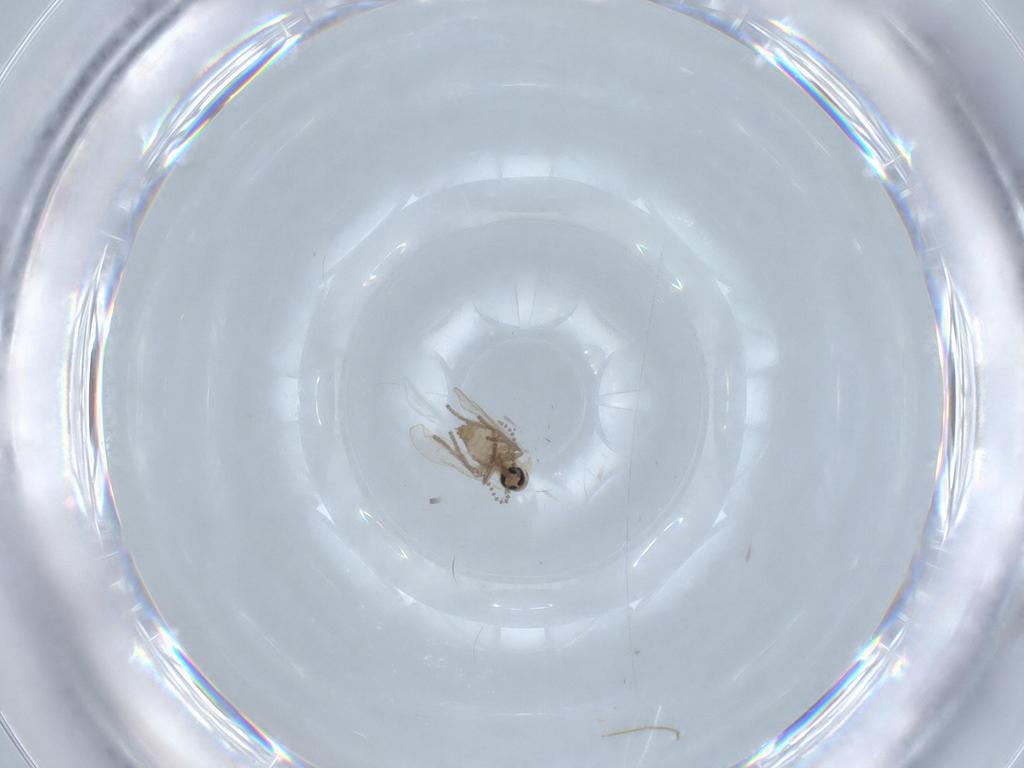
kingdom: Animalia
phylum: Arthropoda
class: Insecta
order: Diptera
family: Psychodidae
